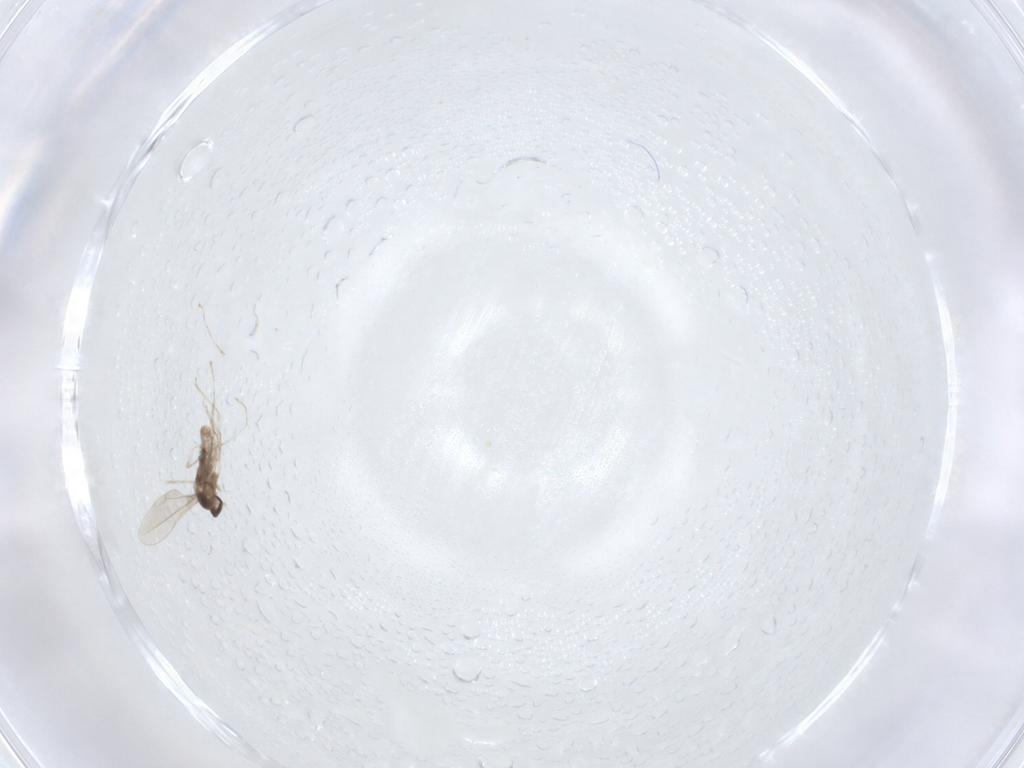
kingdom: Animalia
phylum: Arthropoda
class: Insecta
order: Diptera
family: Cecidomyiidae
